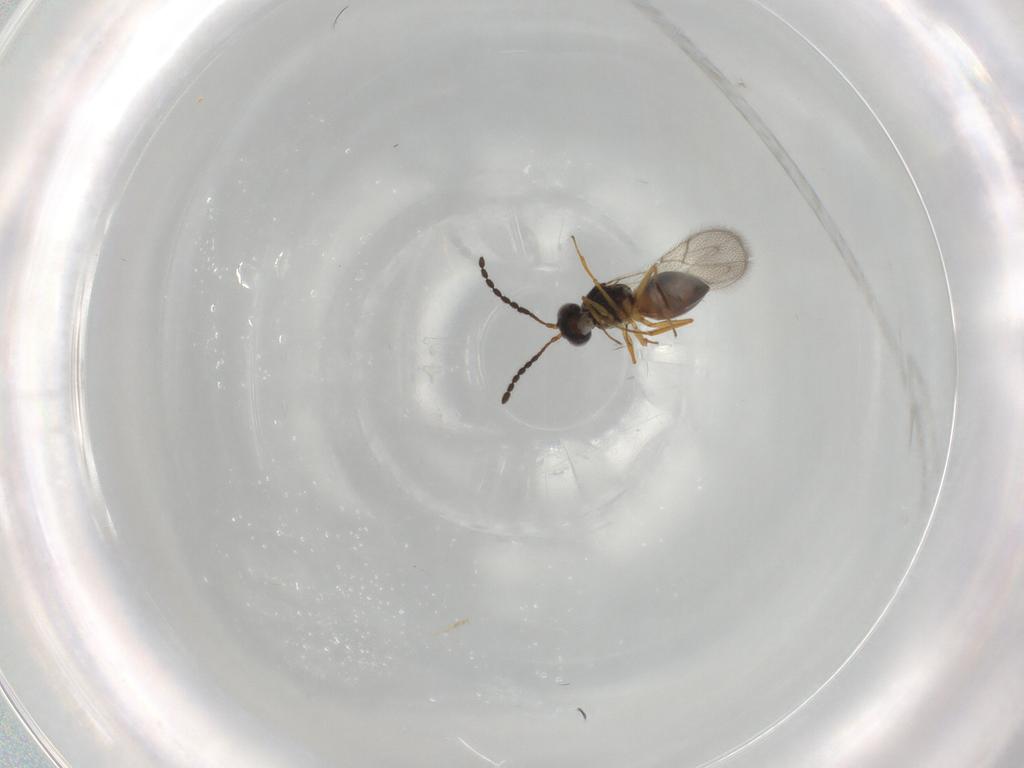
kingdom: Animalia
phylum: Arthropoda
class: Insecta
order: Hymenoptera
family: Figitidae
